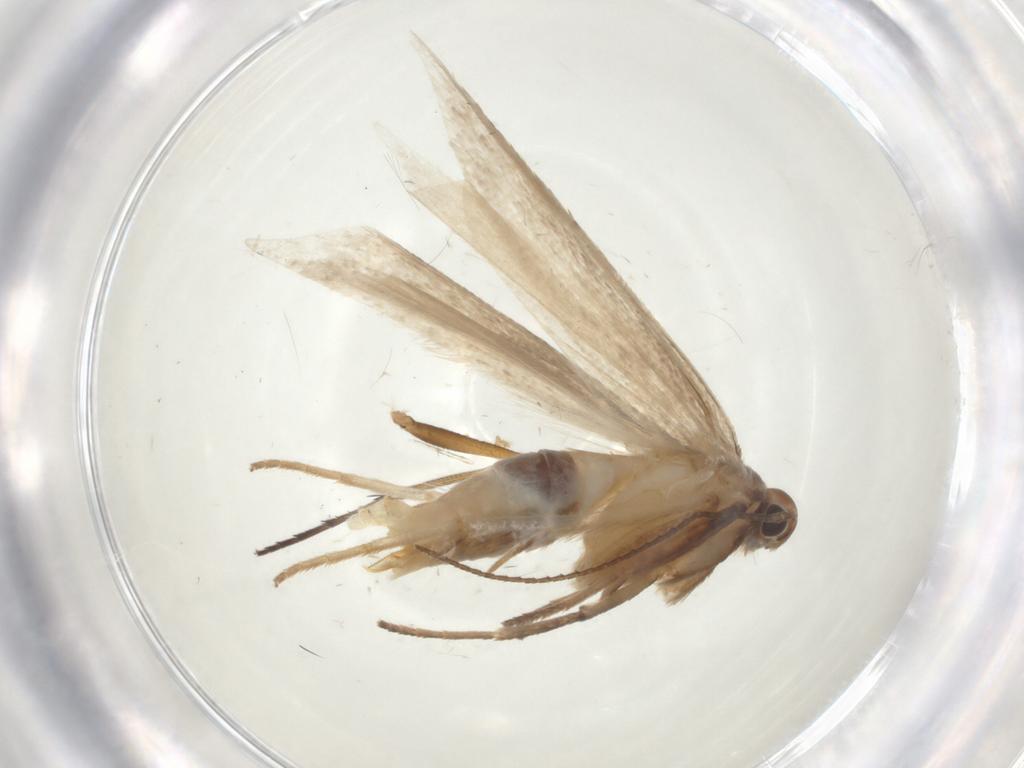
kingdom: Animalia
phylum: Arthropoda
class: Insecta
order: Lepidoptera
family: Gelechiidae
